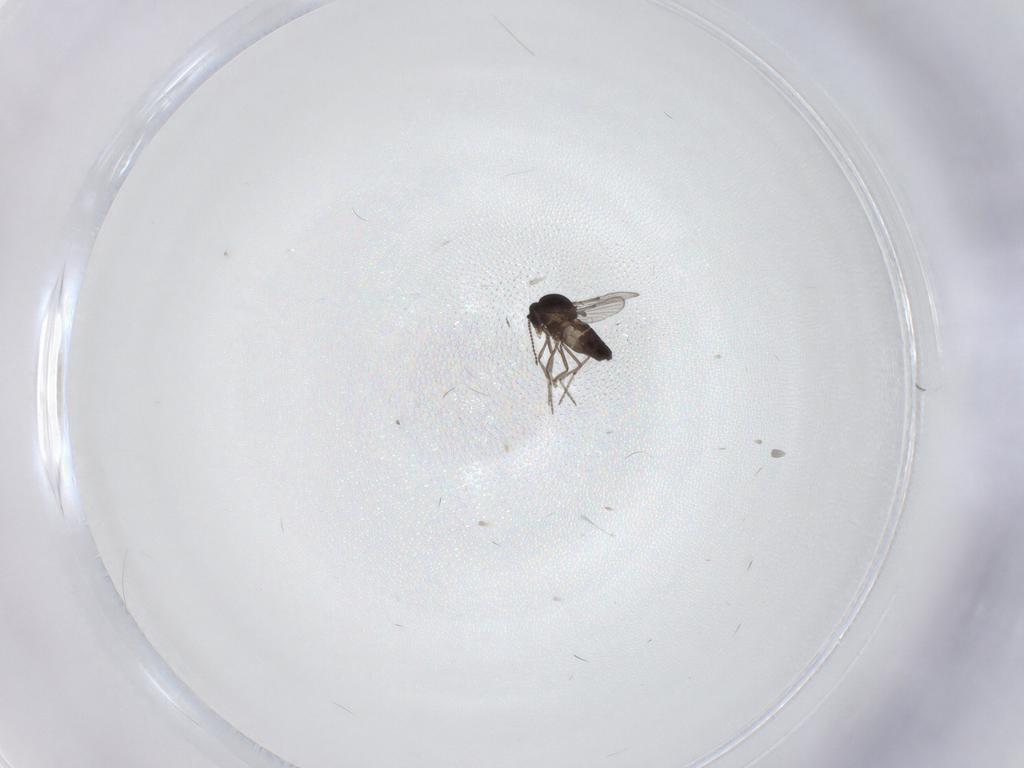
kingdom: Animalia
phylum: Arthropoda
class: Insecta
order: Diptera
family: Ceratopogonidae
